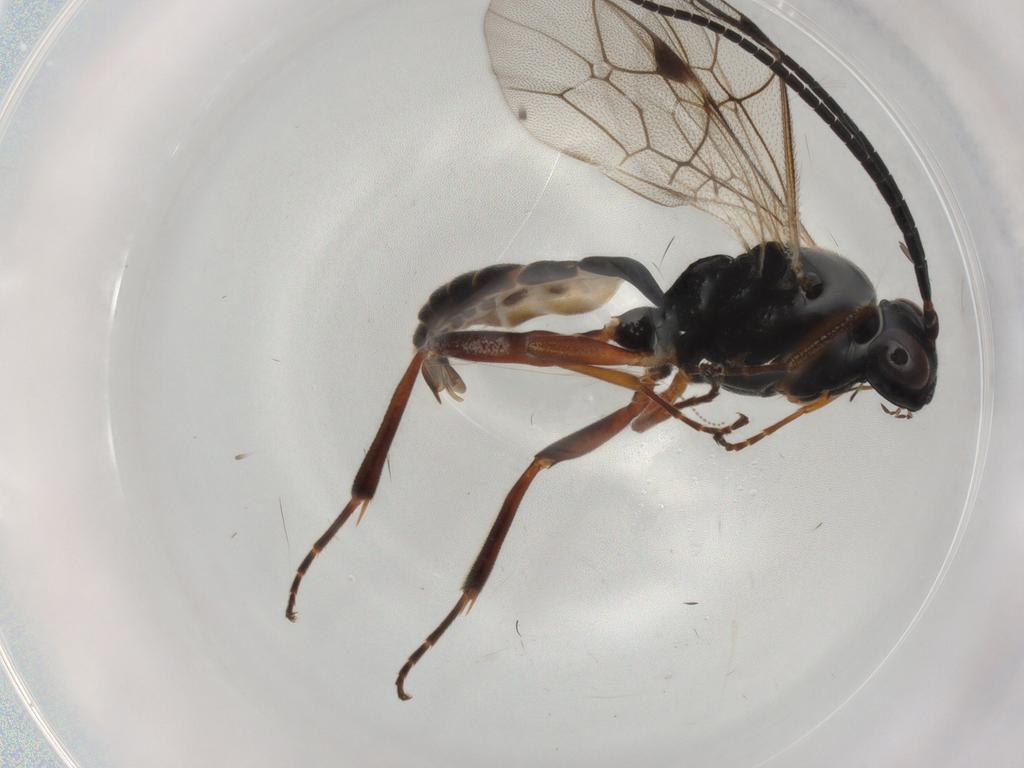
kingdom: Animalia
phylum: Arthropoda
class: Insecta
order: Hymenoptera
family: Ichneumonidae
